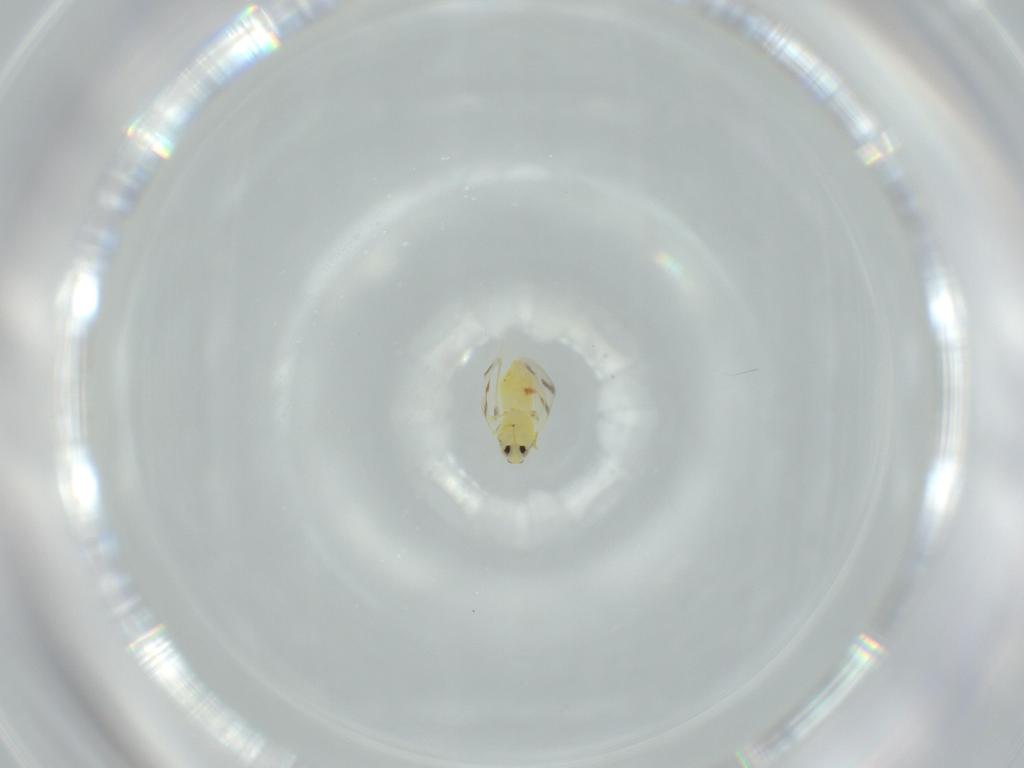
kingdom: Animalia
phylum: Arthropoda
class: Insecta
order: Hemiptera
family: Aleyrodidae
